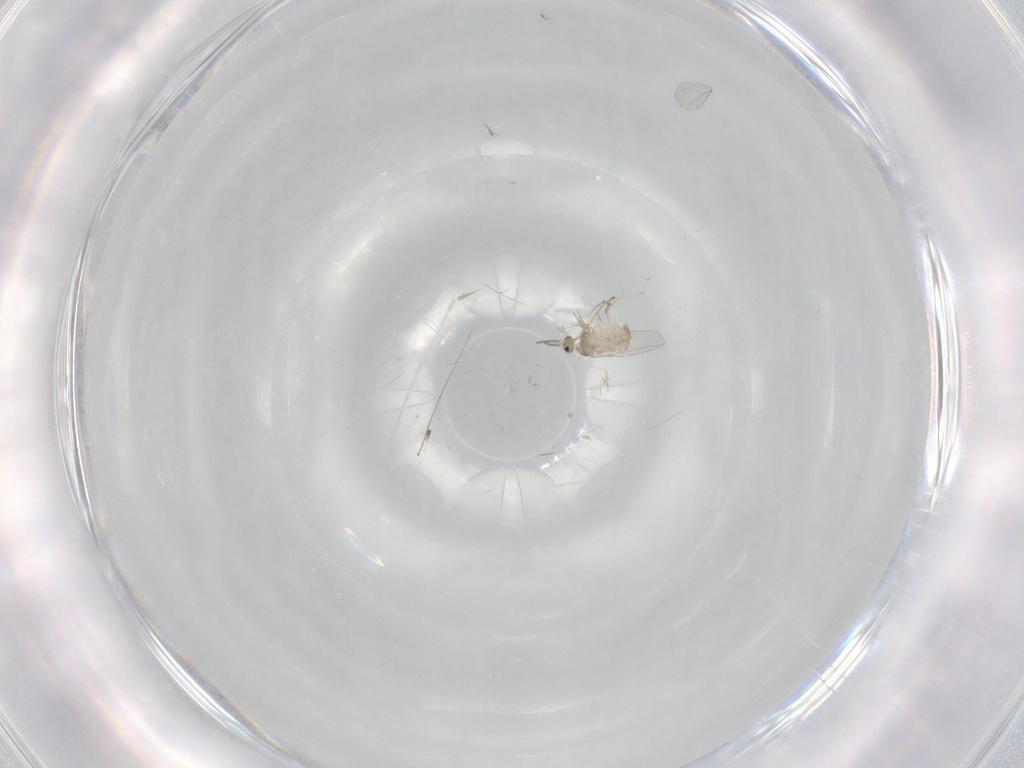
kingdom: Animalia
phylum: Arthropoda
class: Insecta
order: Diptera
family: Cecidomyiidae
